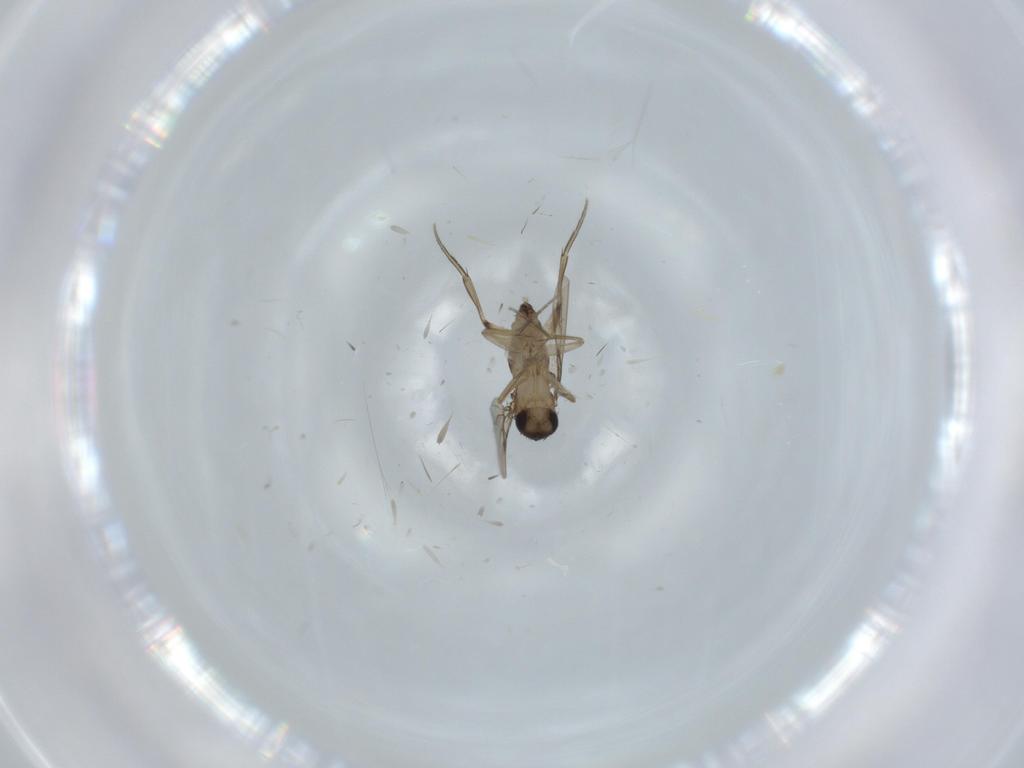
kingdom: Animalia
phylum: Arthropoda
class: Insecta
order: Diptera
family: Phoridae
